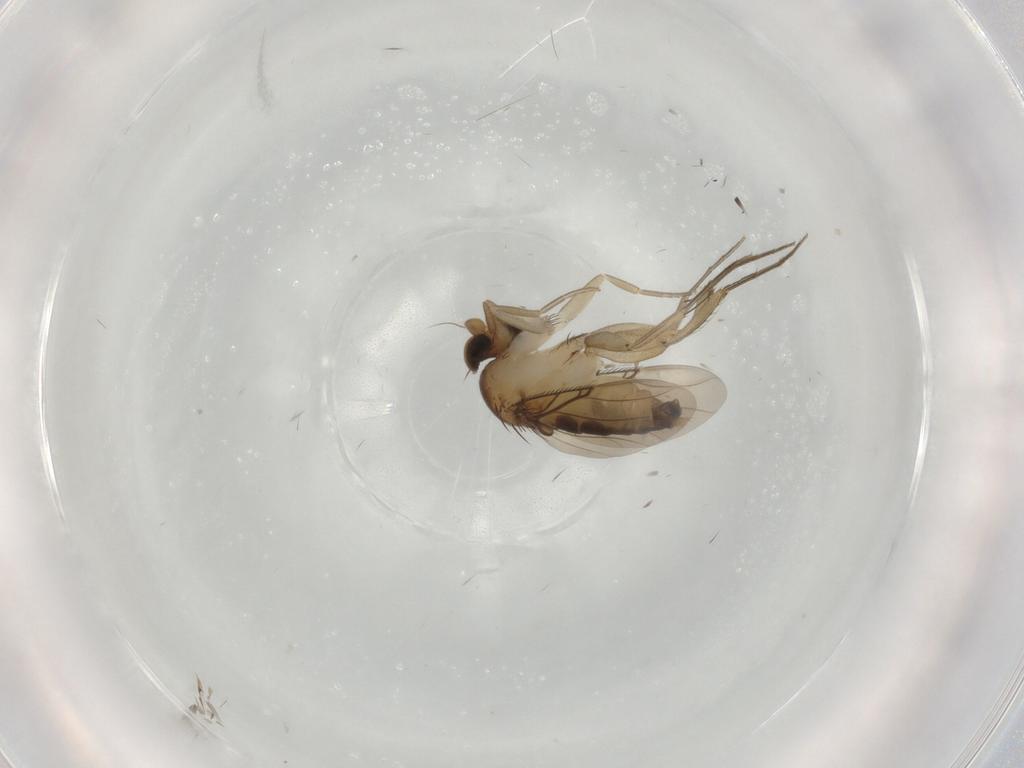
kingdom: Animalia
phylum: Arthropoda
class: Insecta
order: Diptera
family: Phoridae
